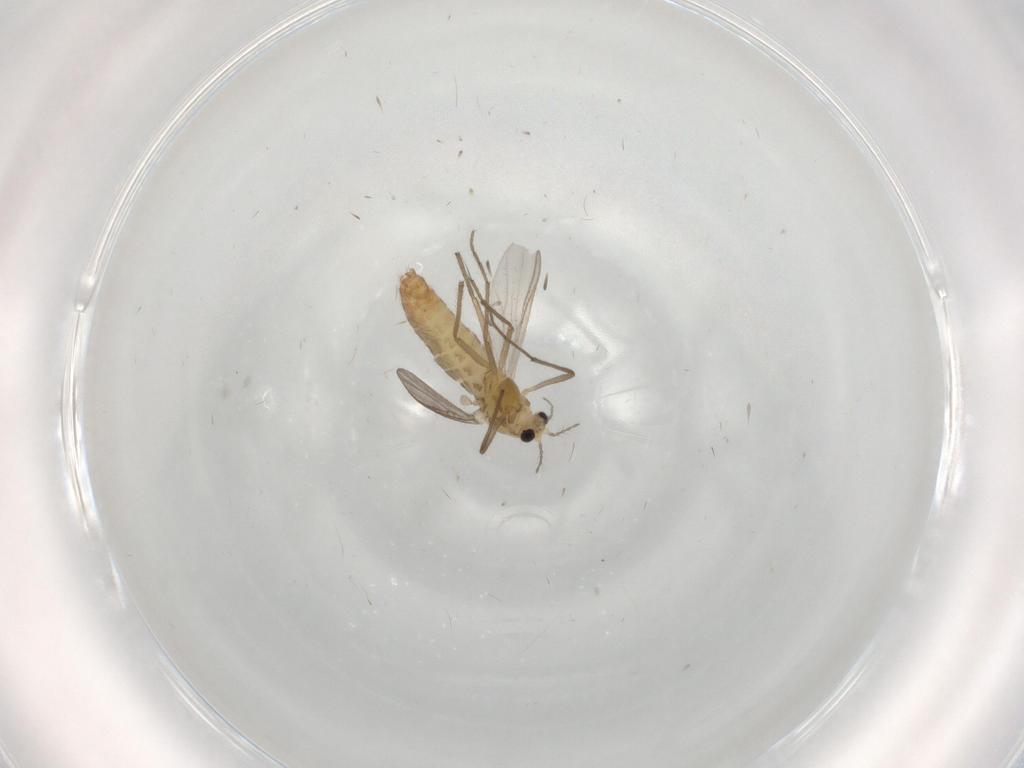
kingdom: Animalia
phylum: Arthropoda
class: Insecta
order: Diptera
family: Chironomidae
